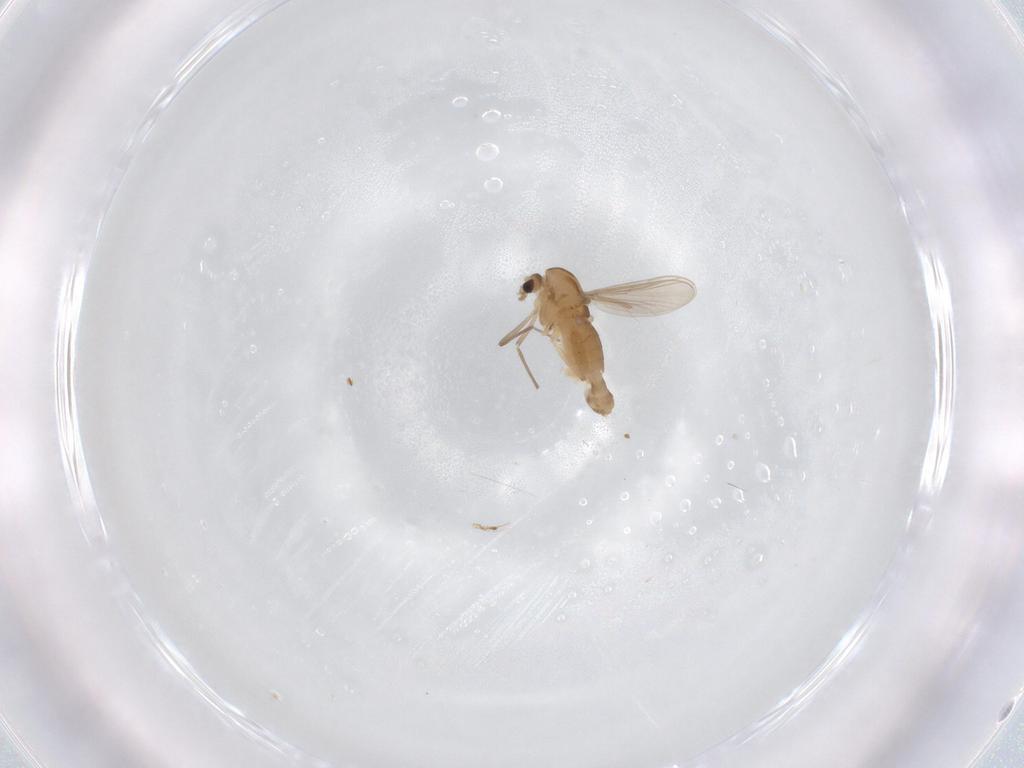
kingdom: Animalia
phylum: Arthropoda
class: Insecta
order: Diptera
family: Chironomidae
